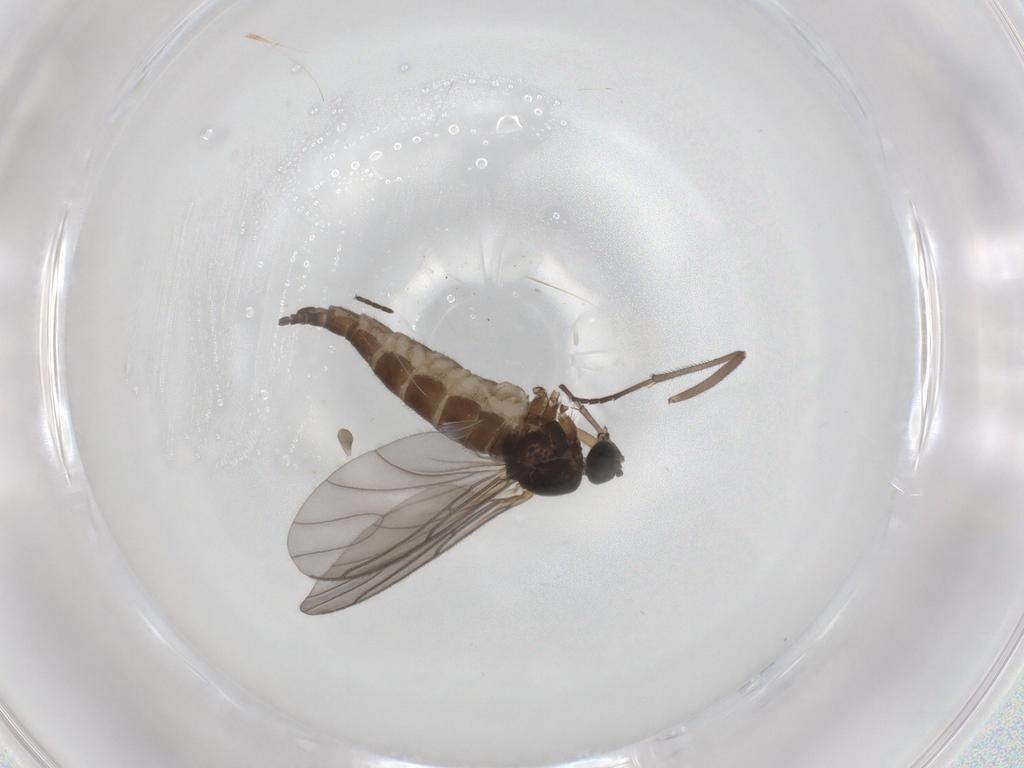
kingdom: Animalia
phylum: Arthropoda
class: Insecta
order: Diptera
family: Sciaridae
